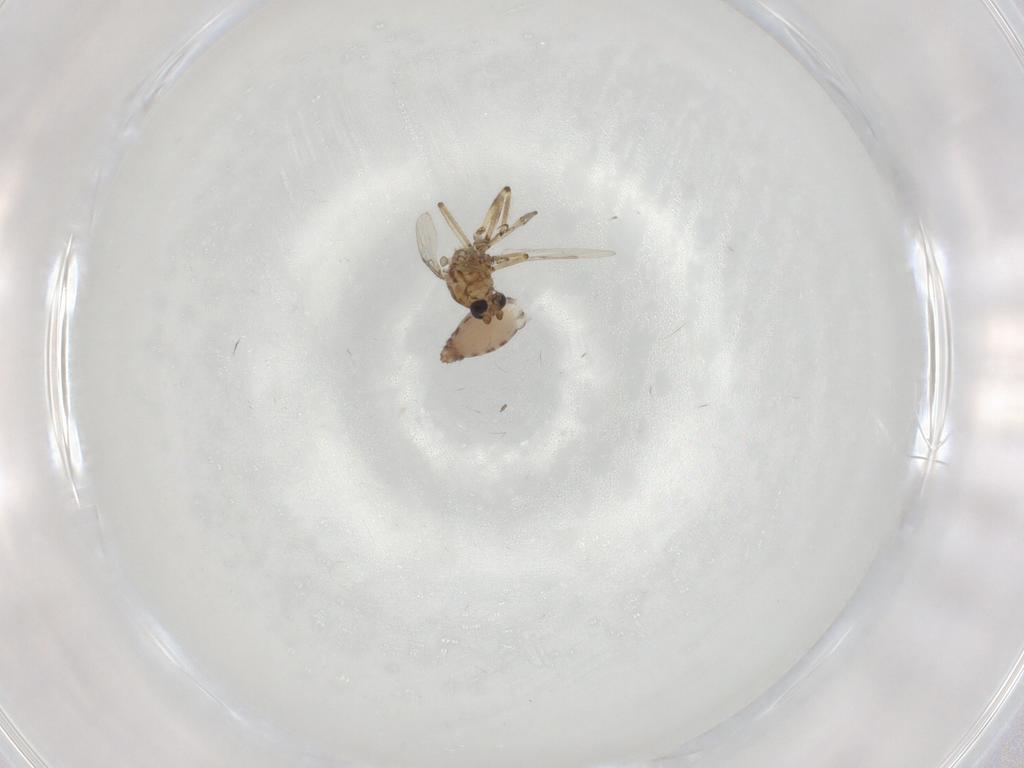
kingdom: Animalia
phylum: Arthropoda
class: Insecta
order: Diptera
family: Ceratopogonidae
